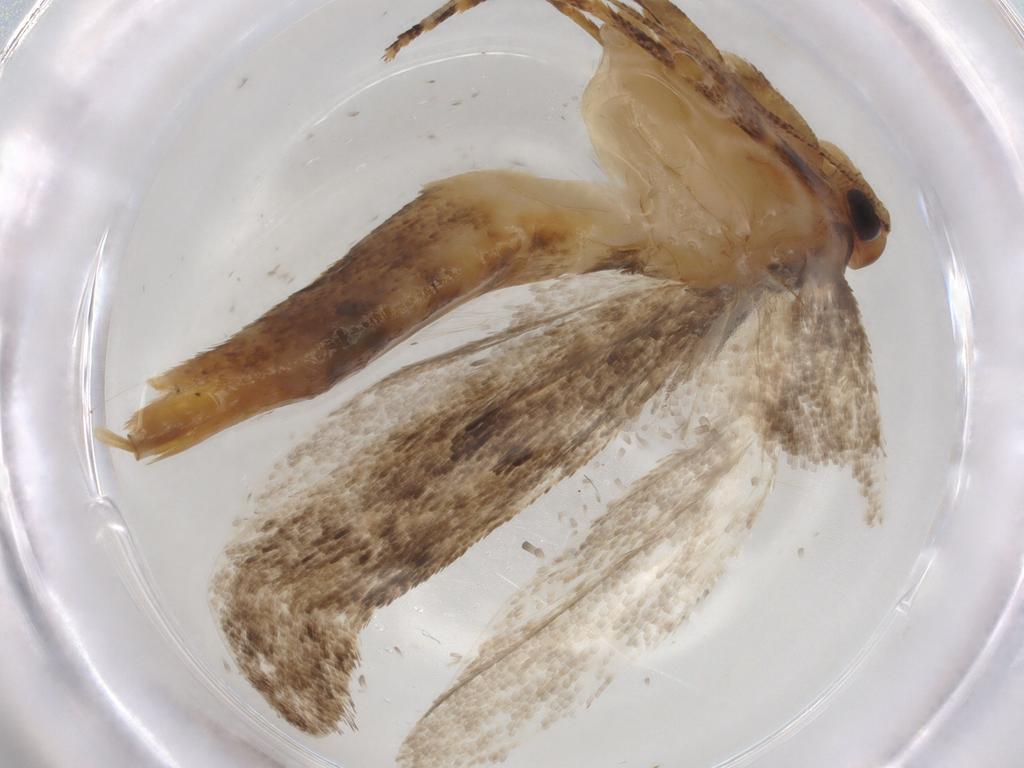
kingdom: Animalia
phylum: Arthropoda
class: Insecta
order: Lepidoptera
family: Oecophoridae
